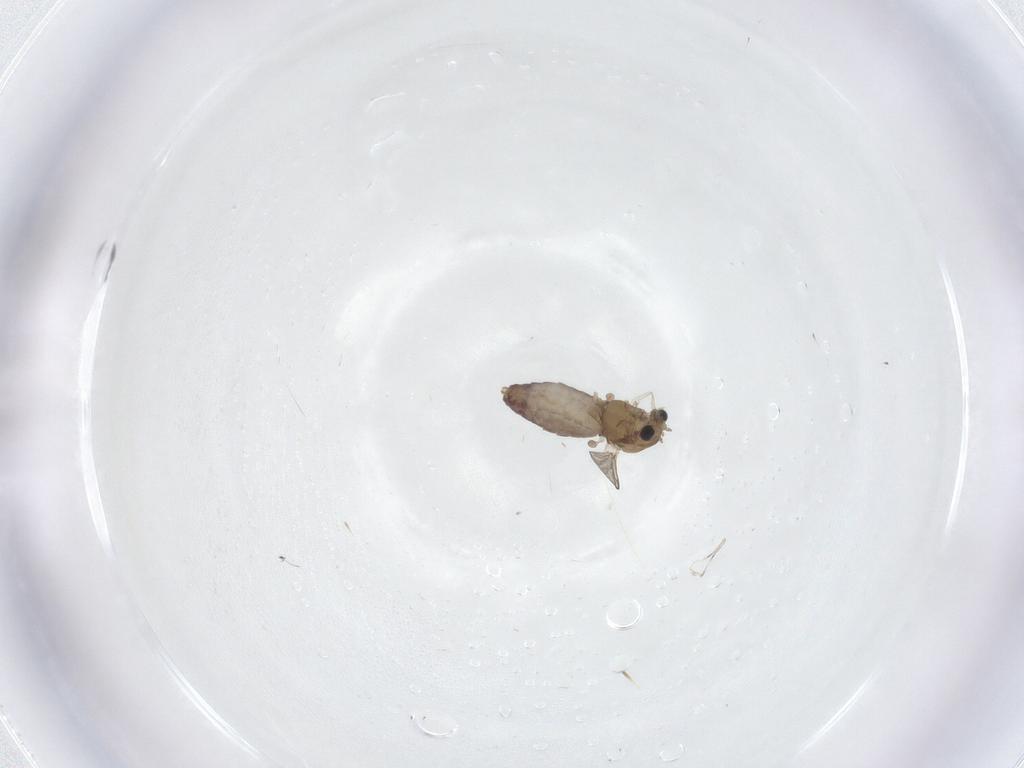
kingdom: Animalia
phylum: Arthropoda
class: Insecta
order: Diptera
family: Chironomidae
